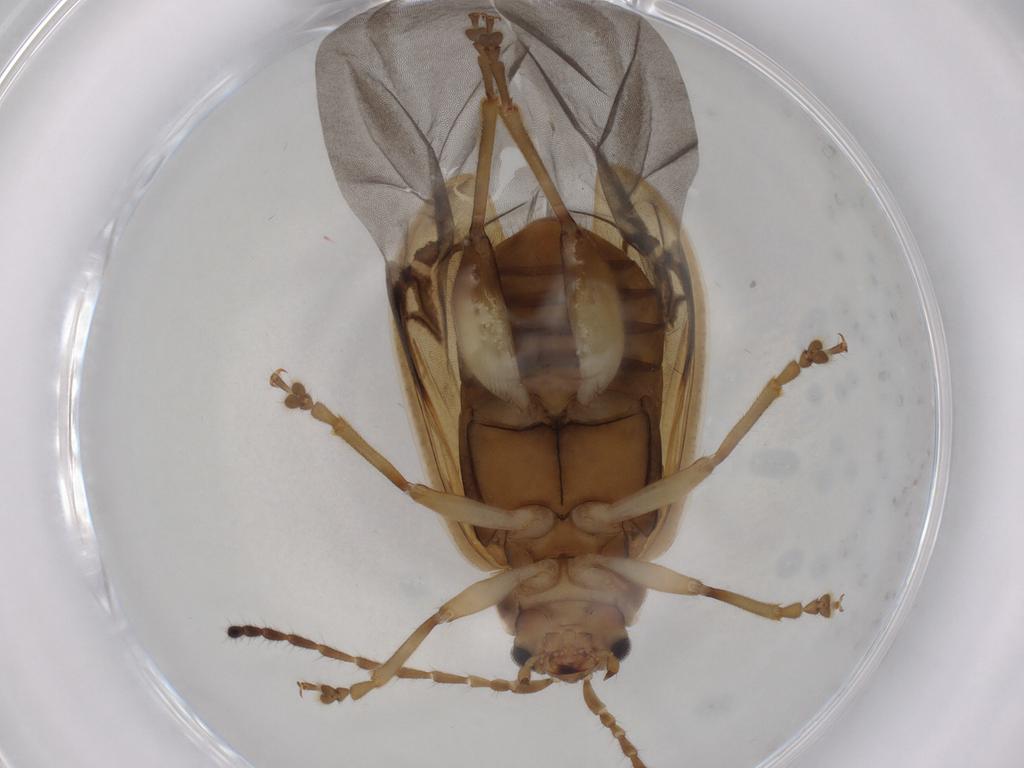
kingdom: Animalia
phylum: Arthropoda
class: Insecta
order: Coleoptera
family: Chrysomelidae
